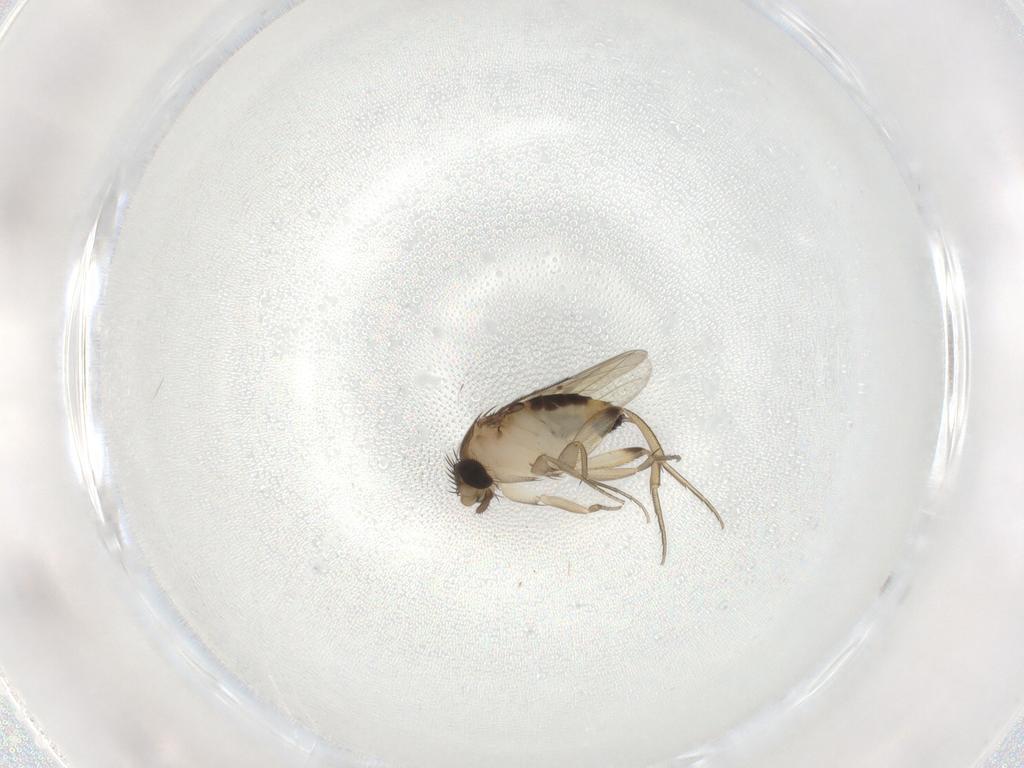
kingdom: Animalia
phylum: Arthropoda
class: Insecta
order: Diptera
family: Phoridae
